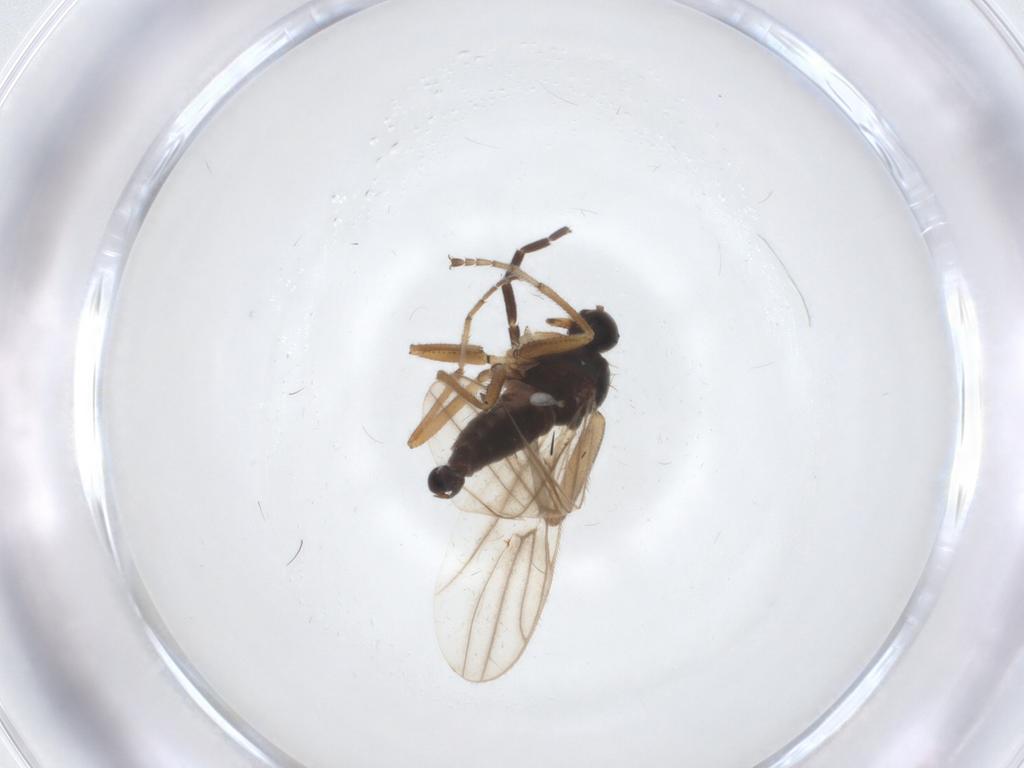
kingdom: Animalia
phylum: Arthropoda
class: Insecta
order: Diptera
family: Hybotidae
